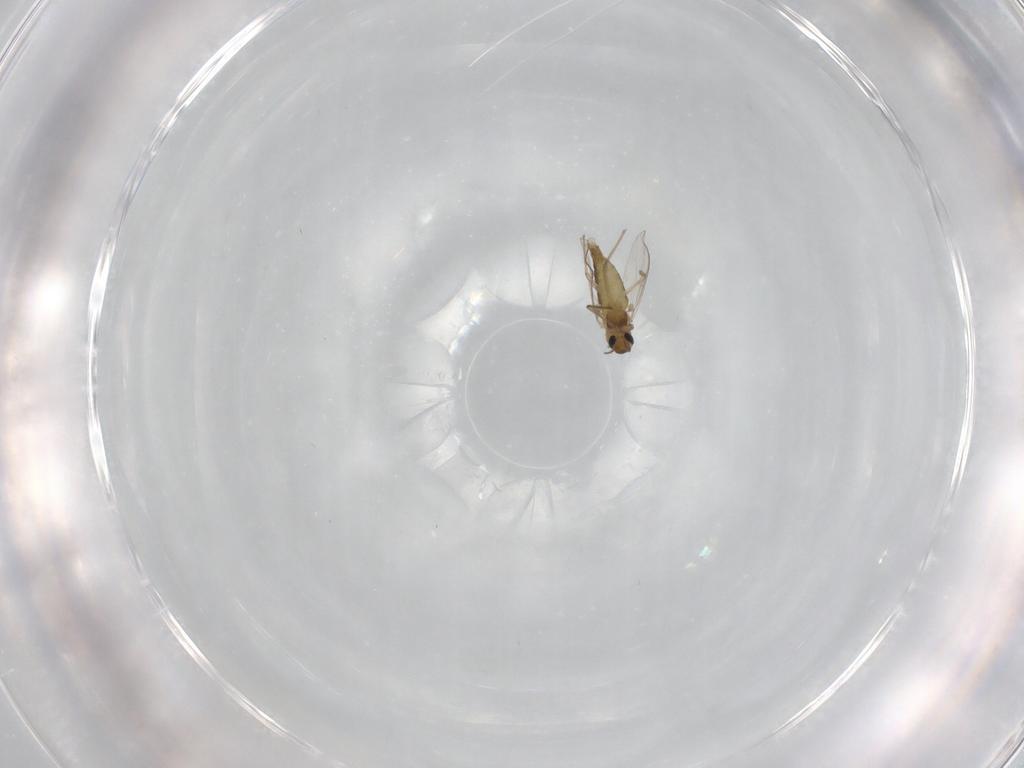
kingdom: Animalia
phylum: Arthropoda
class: Insecta
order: Diptera
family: Chironomidae
